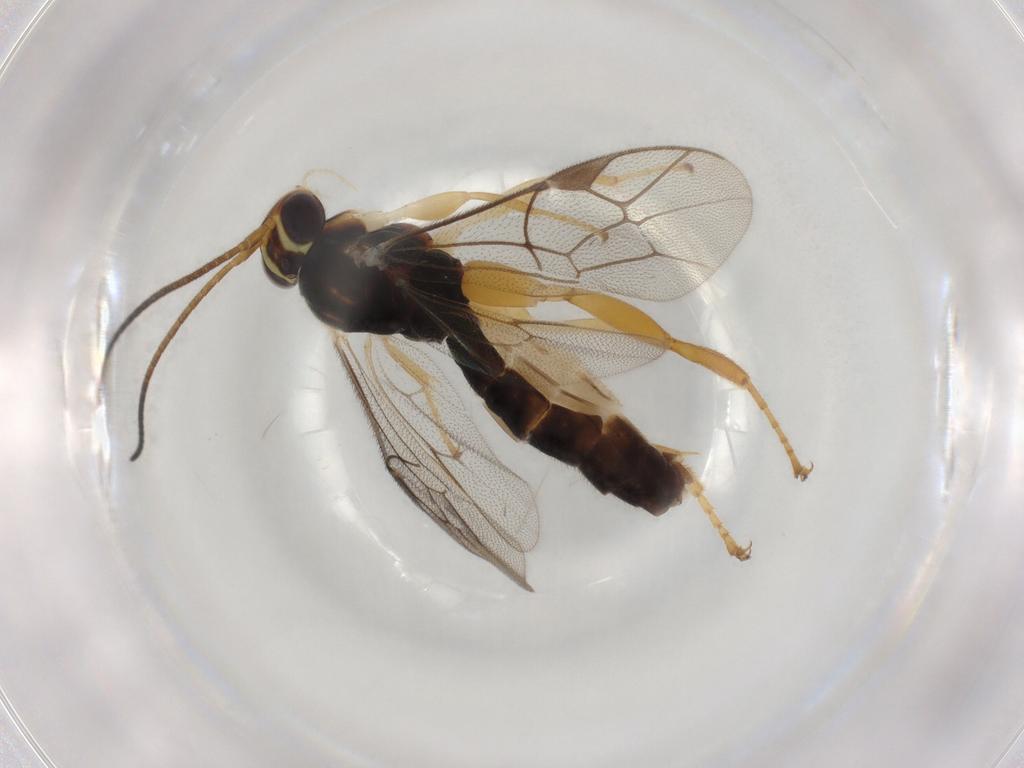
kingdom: Animalia
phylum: Arthropoda
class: Insecta
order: Hymenoptera
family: Ichneumonidae
